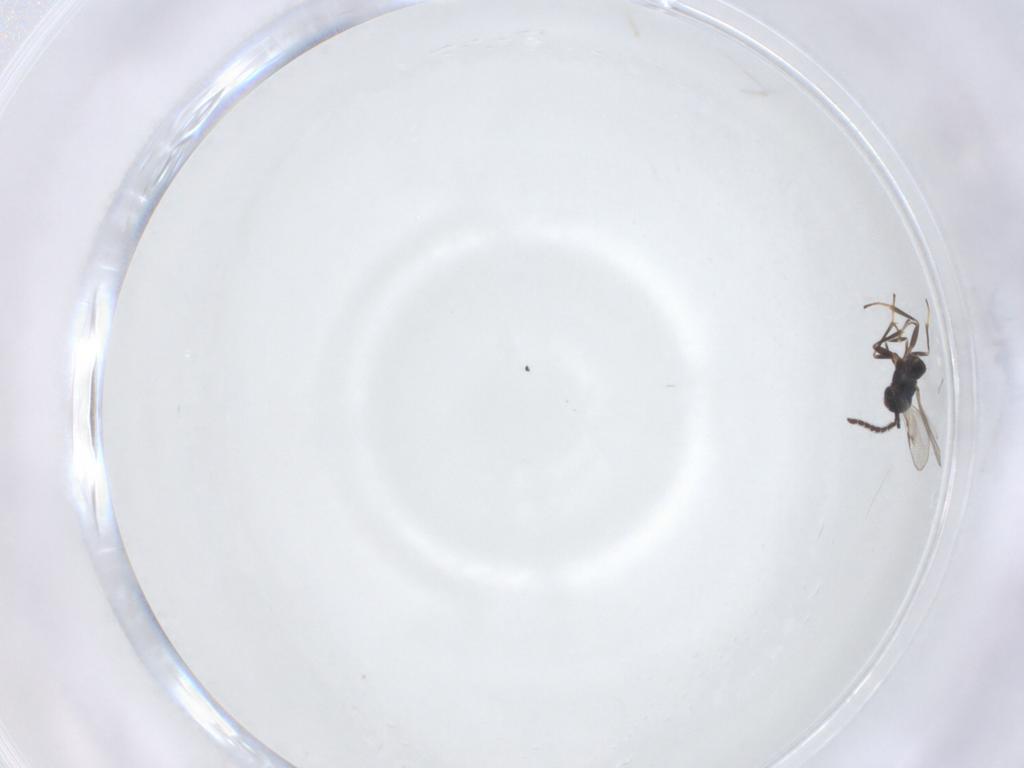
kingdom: Animalia
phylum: Arthropoda
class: Insecta
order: Hymenoptera
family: Encyrtidae
